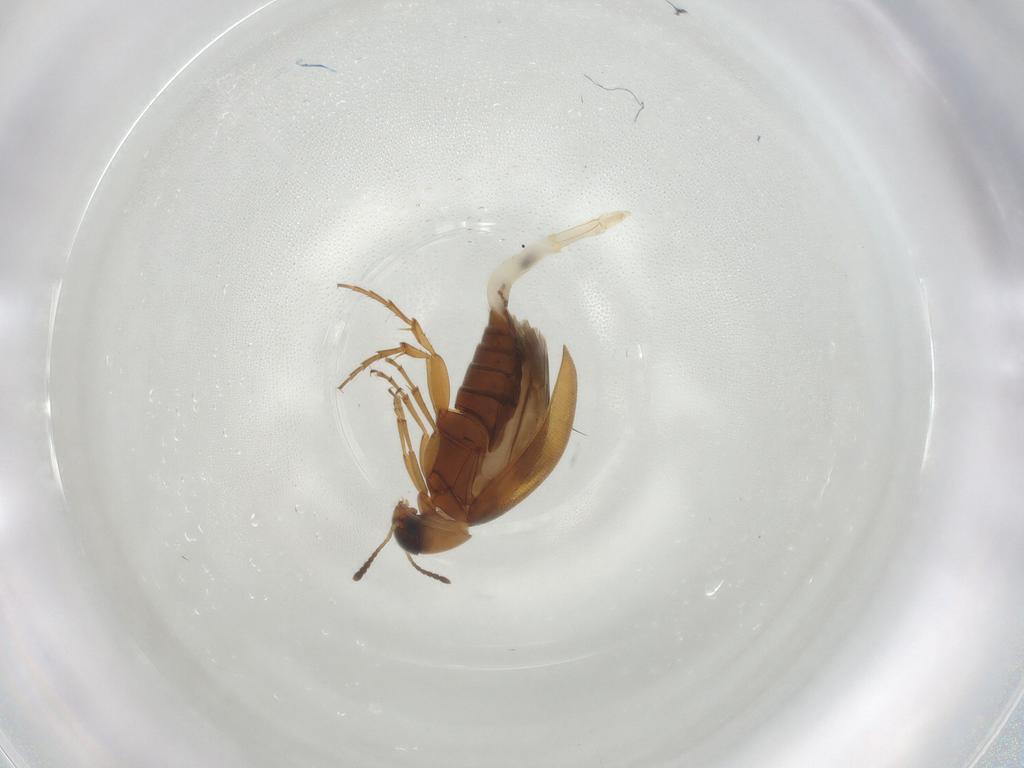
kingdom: Animalia
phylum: Arthropoda
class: Insecta
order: Coleoptera
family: Scraptiidae
